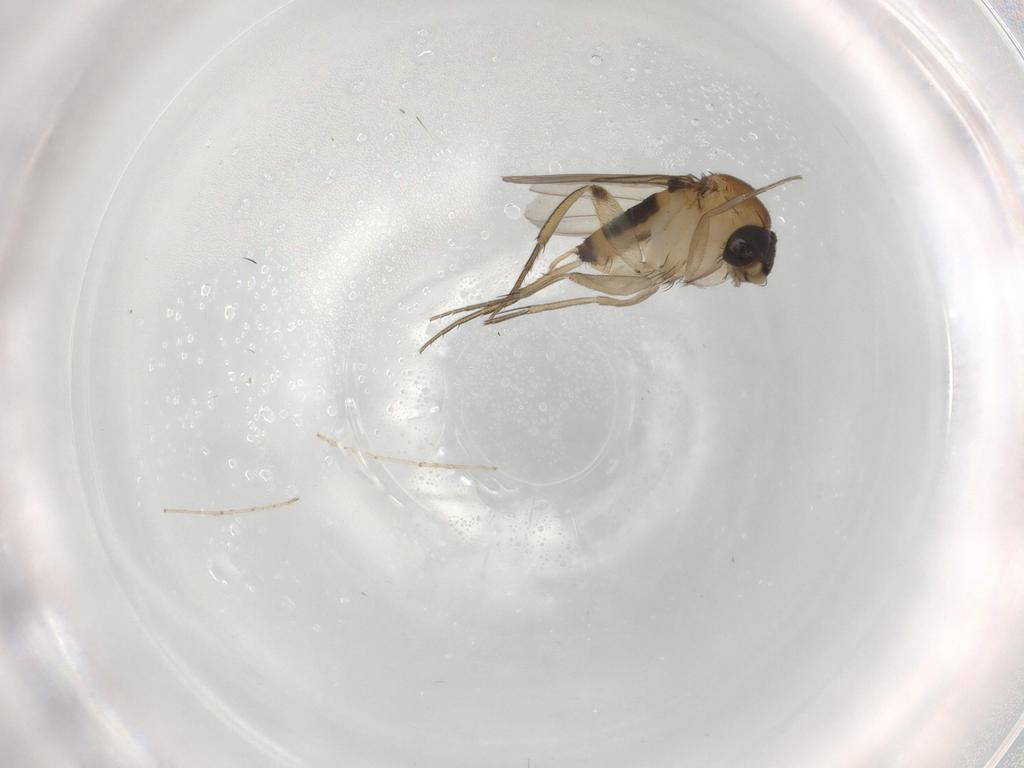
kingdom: Animalia
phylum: Arthropoda
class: Insecta
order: Diptera
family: Phoridae
